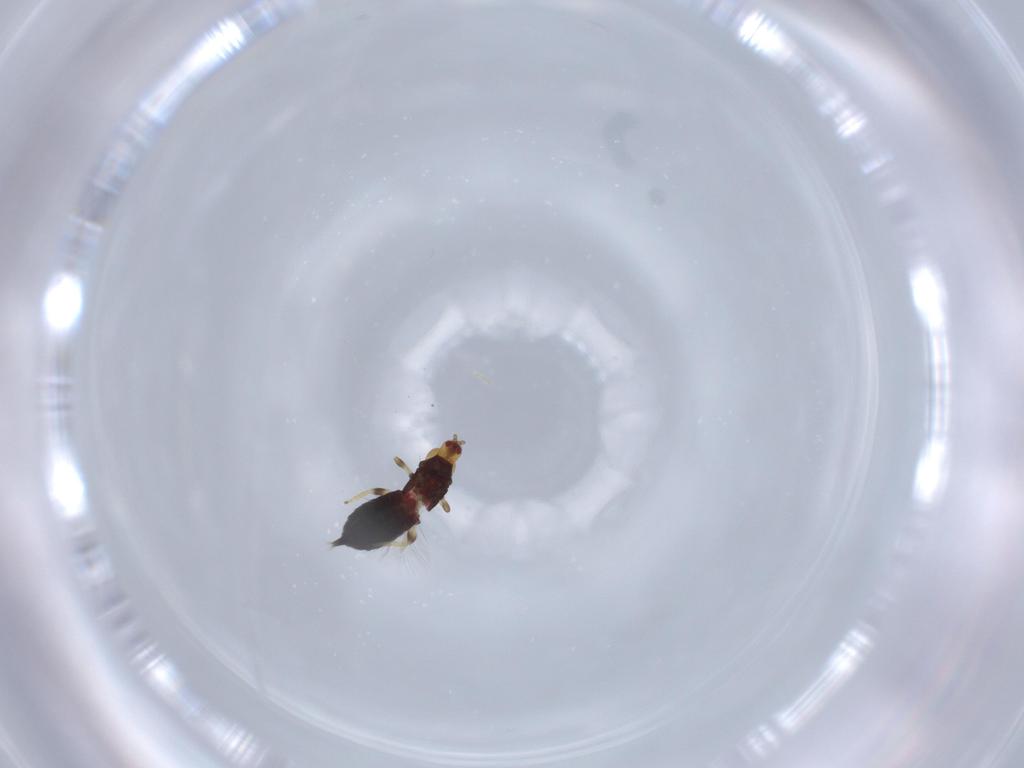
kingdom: Animalia
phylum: Arthropoda
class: Insecta
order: Thysanoptera
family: Phlaeothripidae
